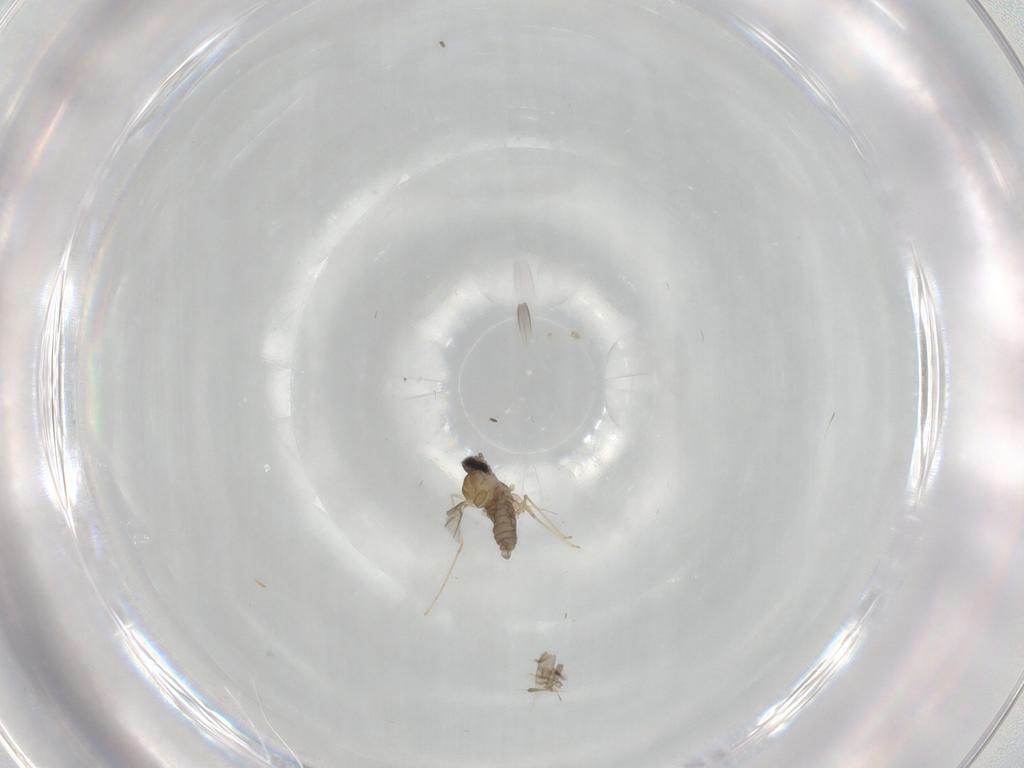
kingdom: Animalia
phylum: Arthropoda
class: Insecta
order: Diptera
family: Cecidomyiidae
